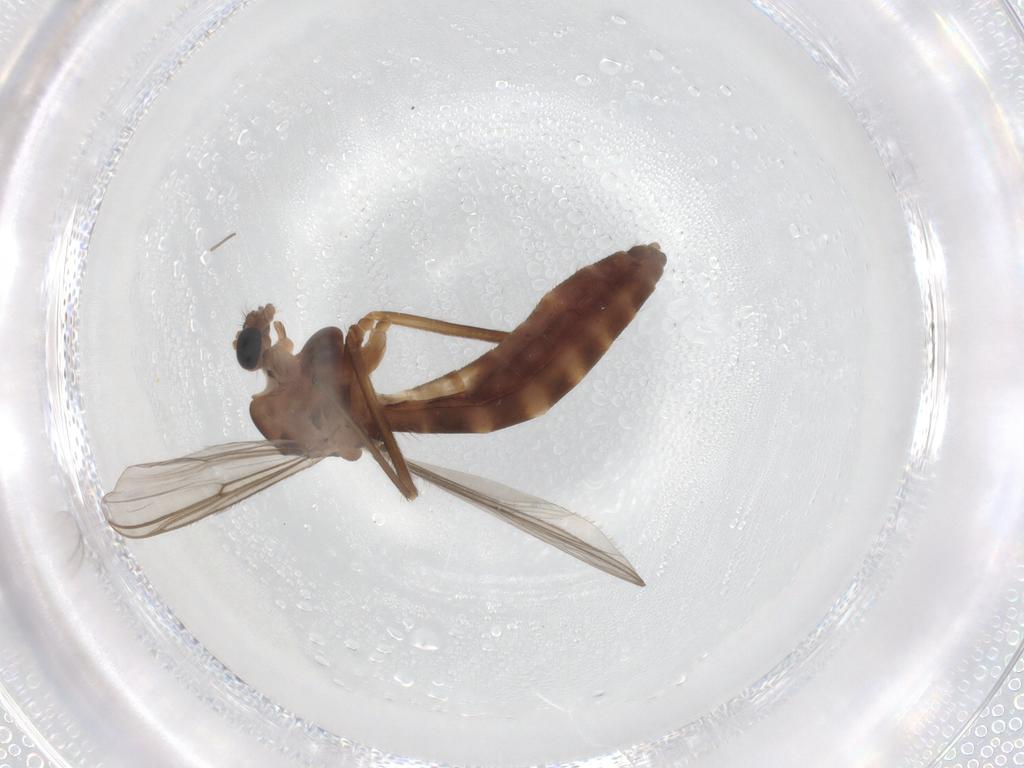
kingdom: Animalia
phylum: Arthropoda
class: Insecta
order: Diptera
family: Chironomidae
